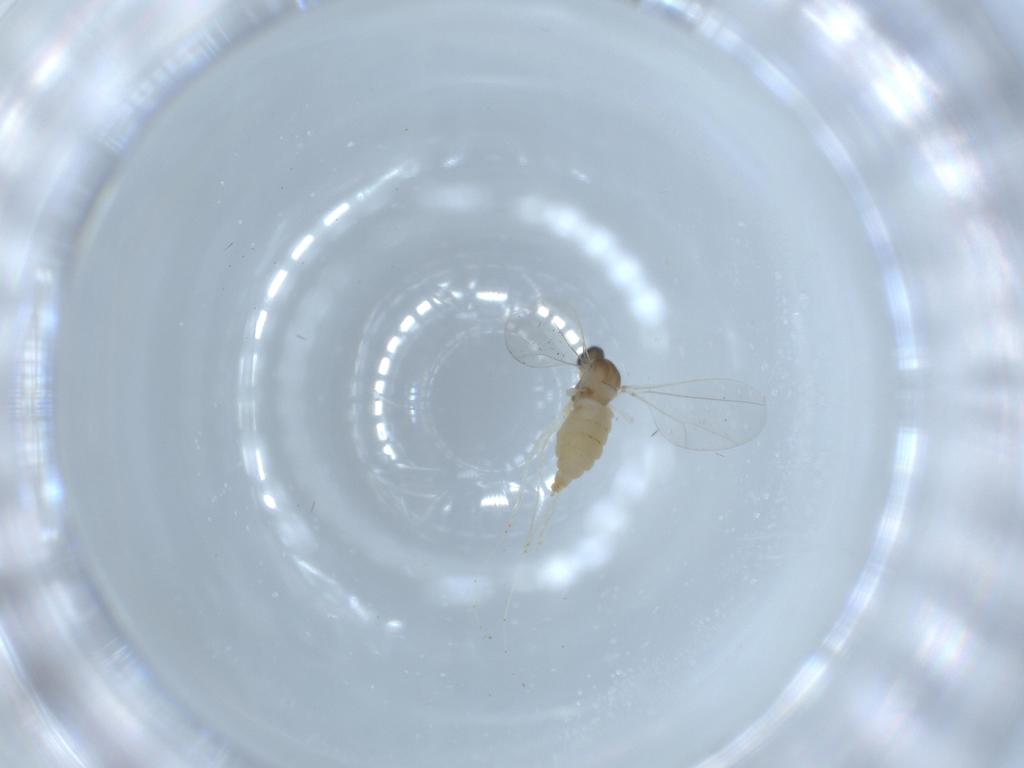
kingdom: Animalia
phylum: Arthropoda
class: Insecta
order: Diptera
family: Cecidomyiidae
